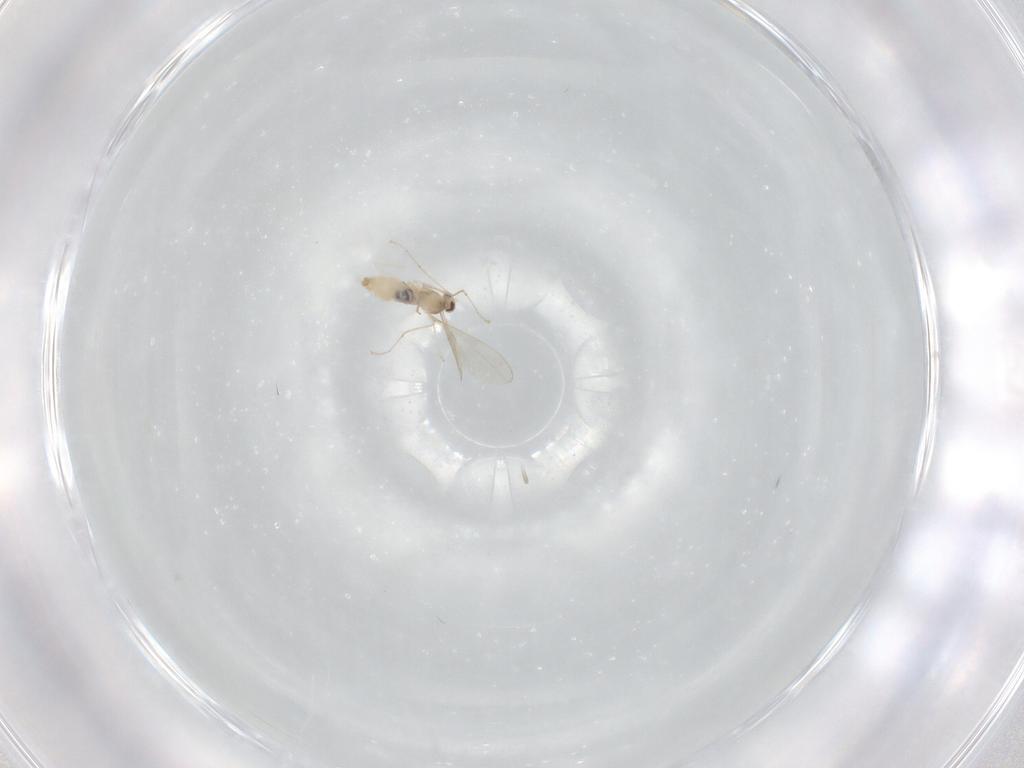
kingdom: Animalia
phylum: Arthropoda
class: Insecta
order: Diptera
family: Cecidomyiidae
